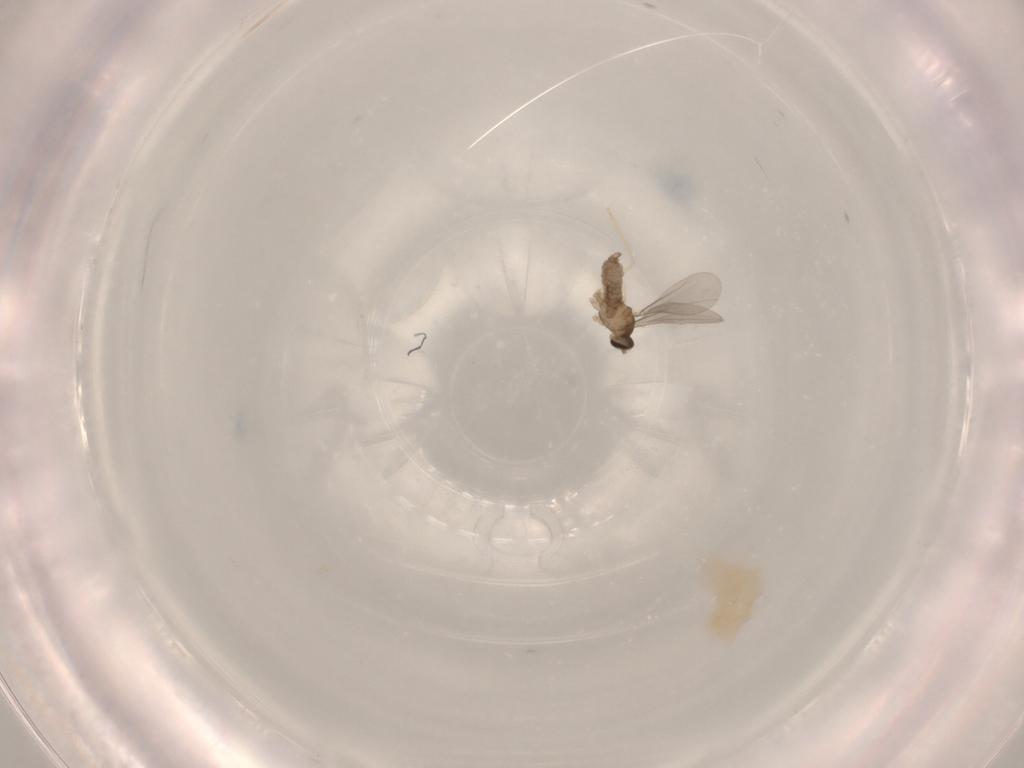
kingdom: Animalia
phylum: Arthropoda
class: Insecta
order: Diptera
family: Cecidomyiidae
